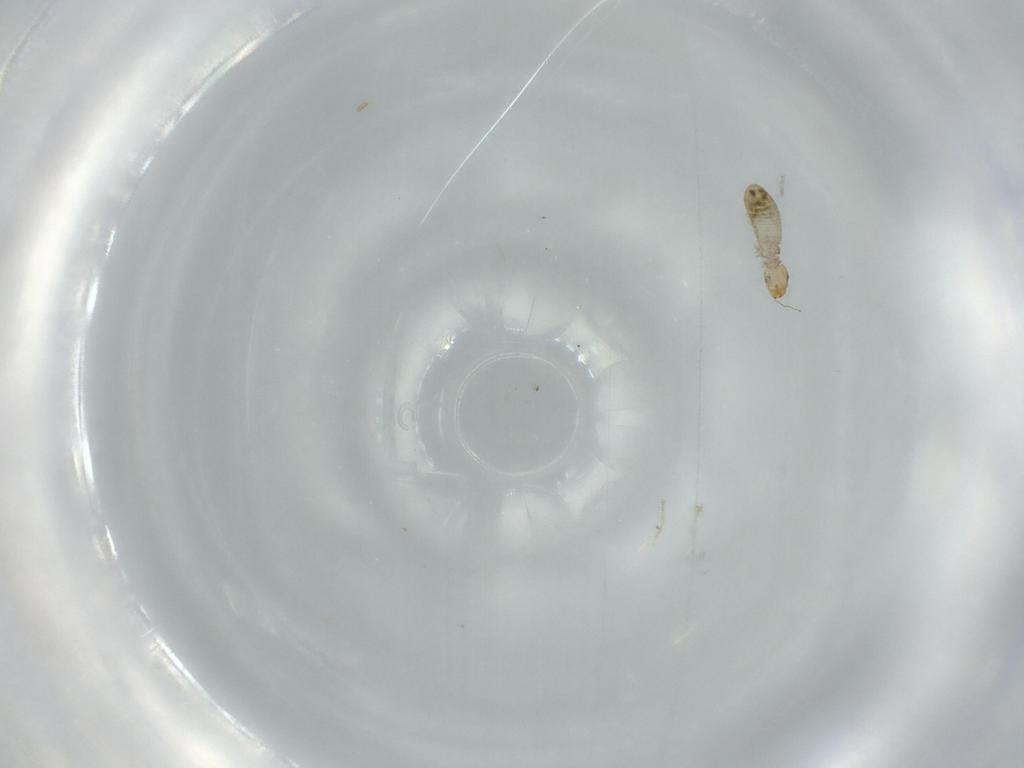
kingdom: Animalia
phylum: Arthropoda
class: Insecta
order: Psocodea
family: Liposcelididae
